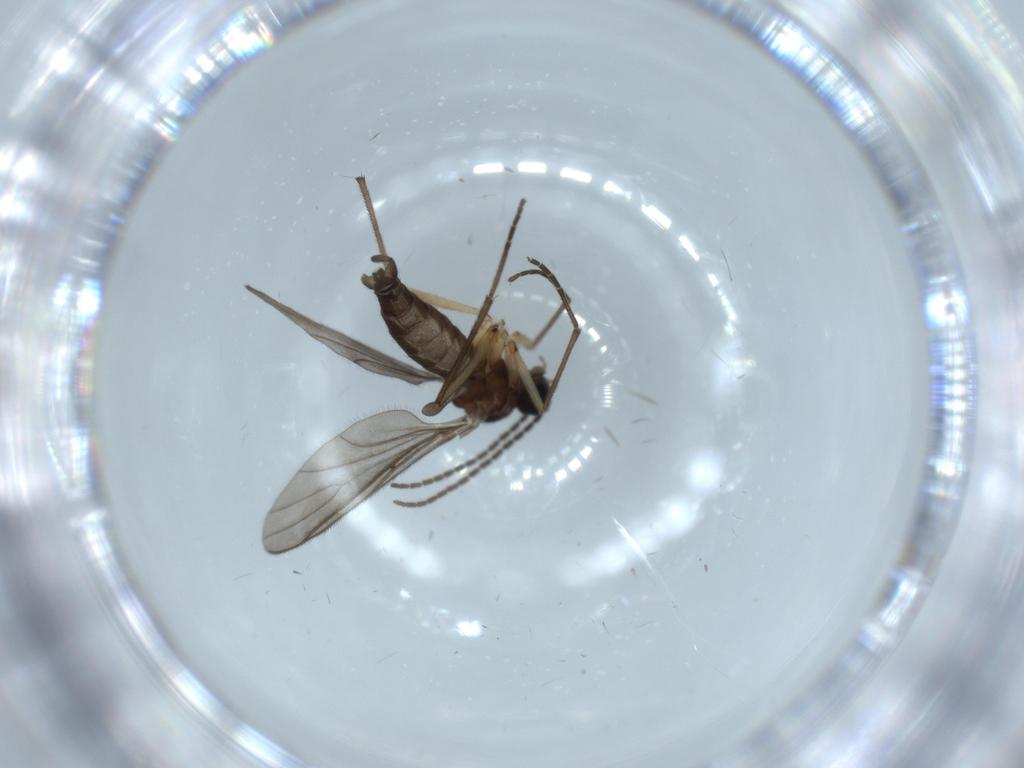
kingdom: Animalia
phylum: Arthropoda
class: Insecta
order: Diptera
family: Sciaridae
